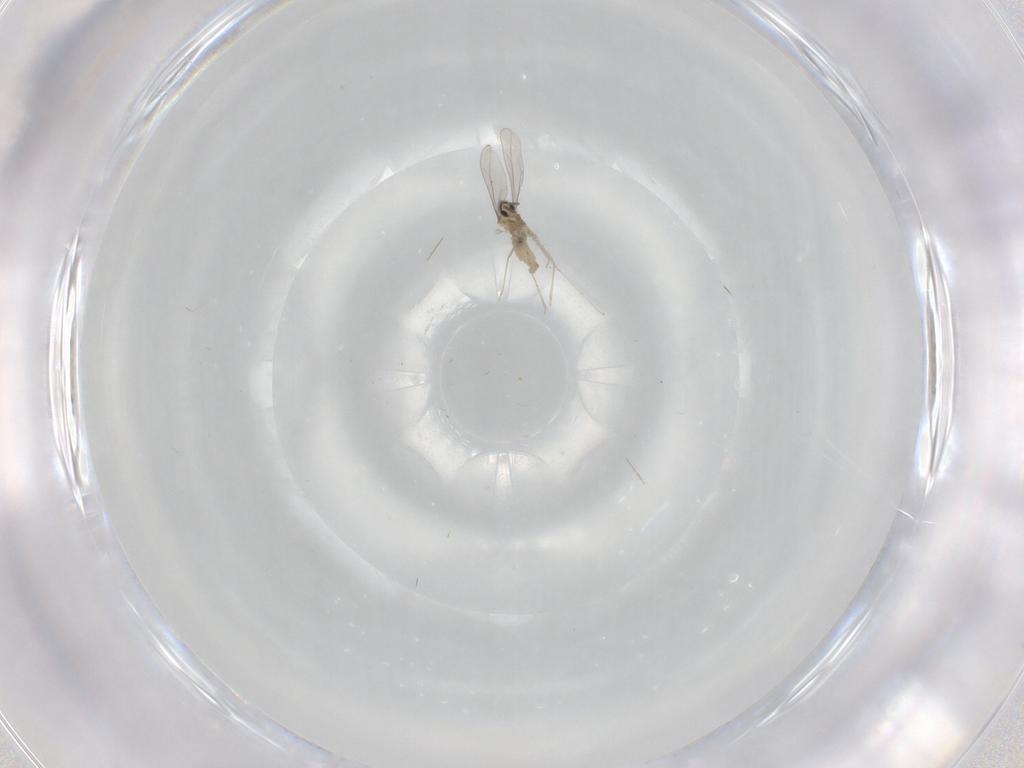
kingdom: Animalia
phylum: Arthropoda
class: Insecta
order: Diptera
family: Cecidomyiidae
